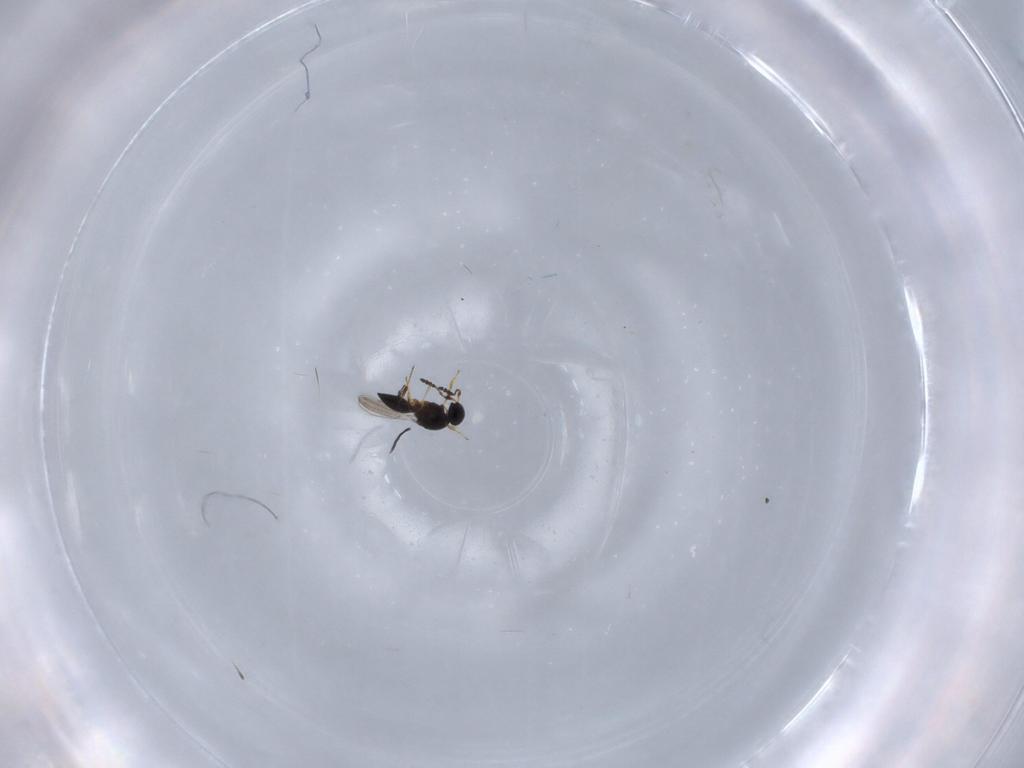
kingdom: Animalia
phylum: Arthropoda
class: Insecta
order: Hymenoptera
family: Platygastridae
